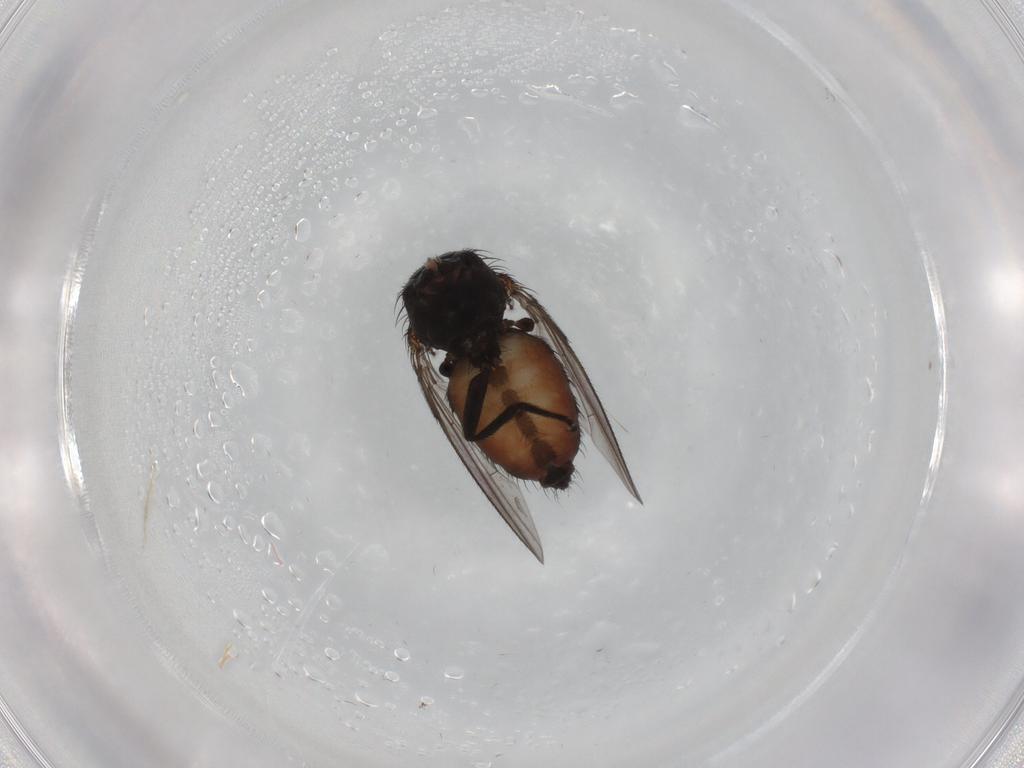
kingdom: Animalia
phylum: Arthropoda
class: Insecta
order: Diptera
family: Milichiidae
